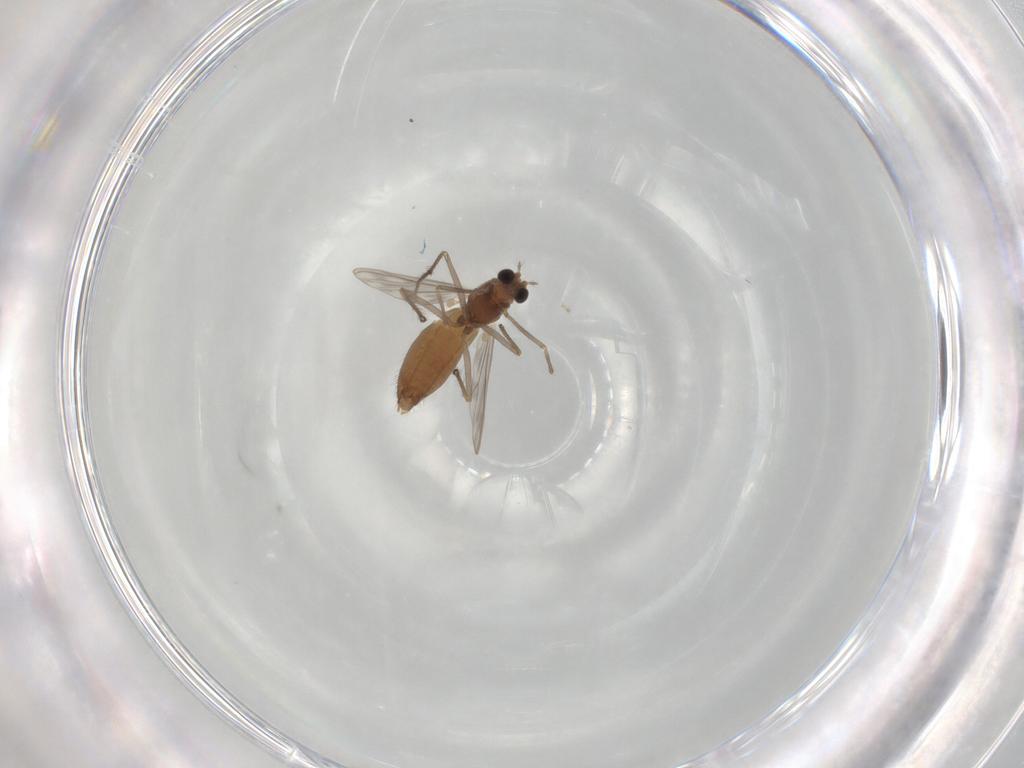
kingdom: Animalia
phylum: Arthropoda
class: Insecta
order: Diptera
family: Chironomidae
